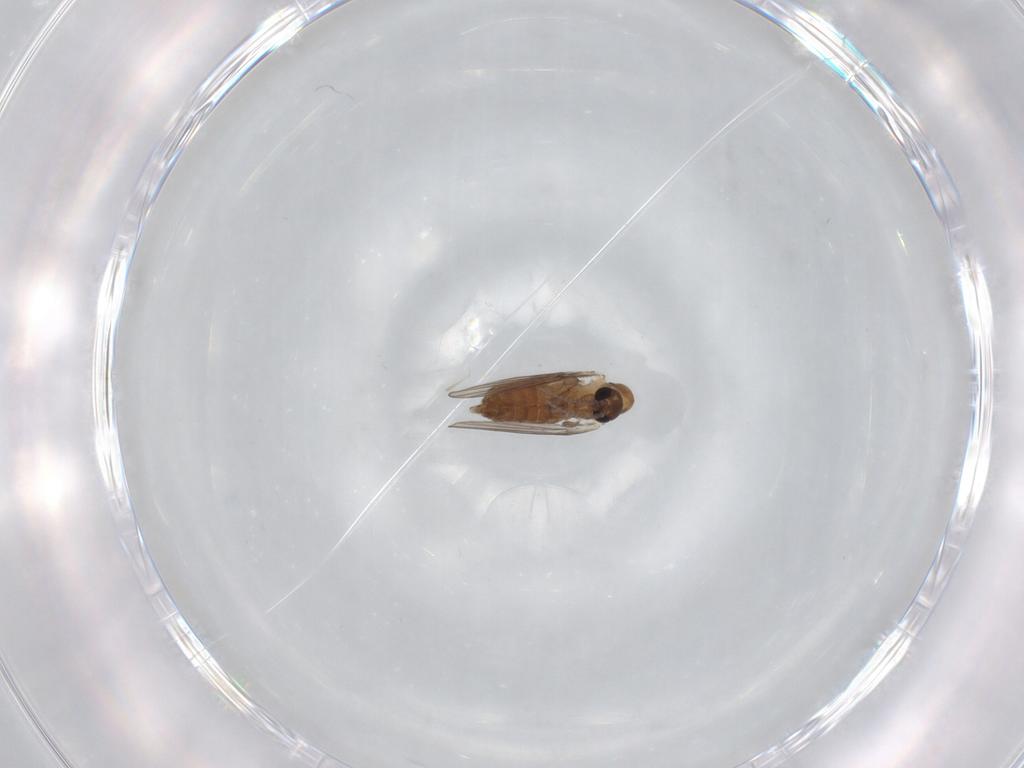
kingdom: Animalia
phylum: Arthropoda
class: Insecta
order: Diptera
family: Psychodidae
